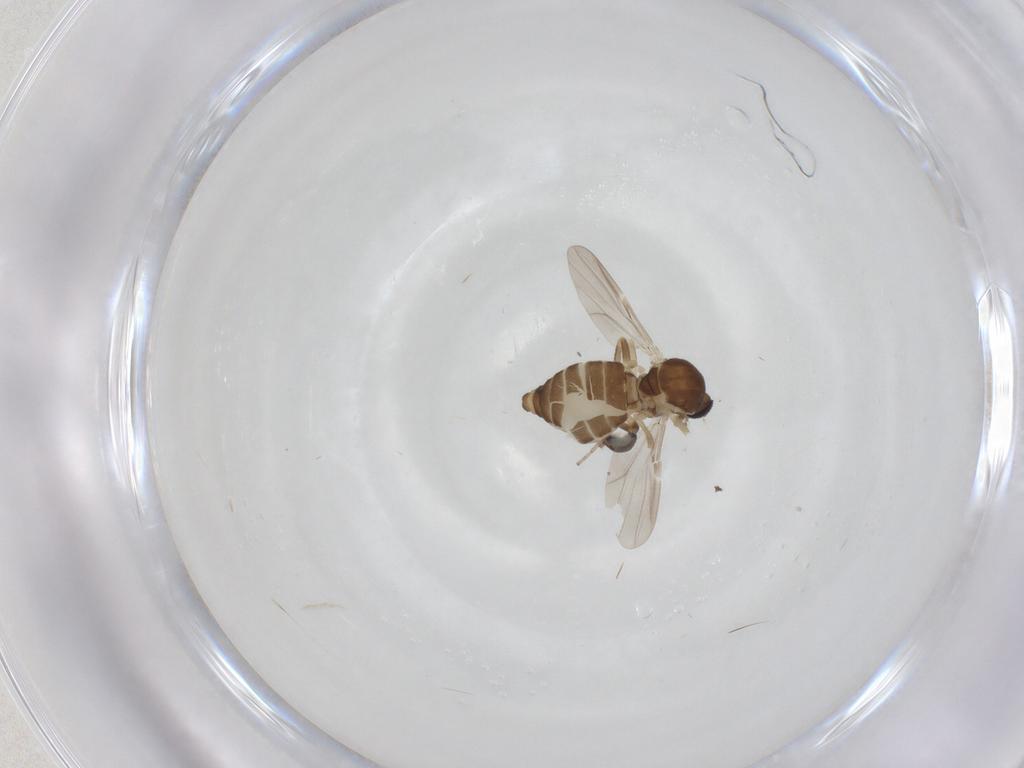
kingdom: Animalia
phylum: Arthropoda
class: Insecta
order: Diptera
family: Ceratopogonidae
